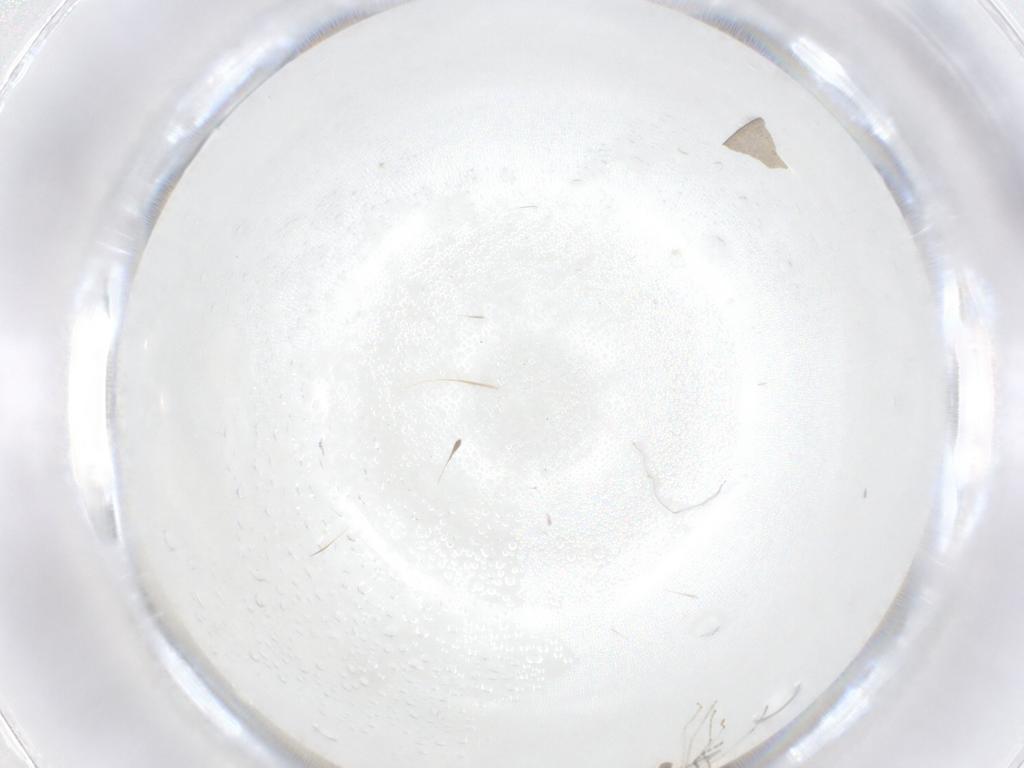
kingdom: Animalia
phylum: Arthropoda
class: Insecta
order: Diptera
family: Cecidomyiidae
